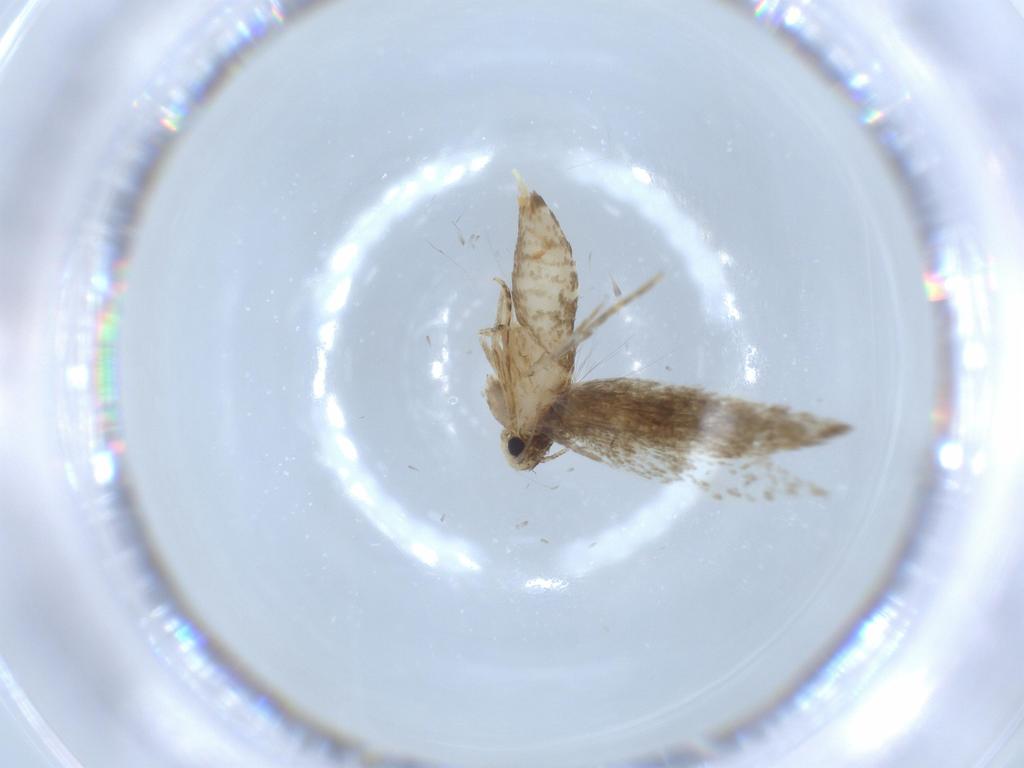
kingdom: Animalia
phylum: Arthropoda
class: Insecta
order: Lepidoptera
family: Tineidae
